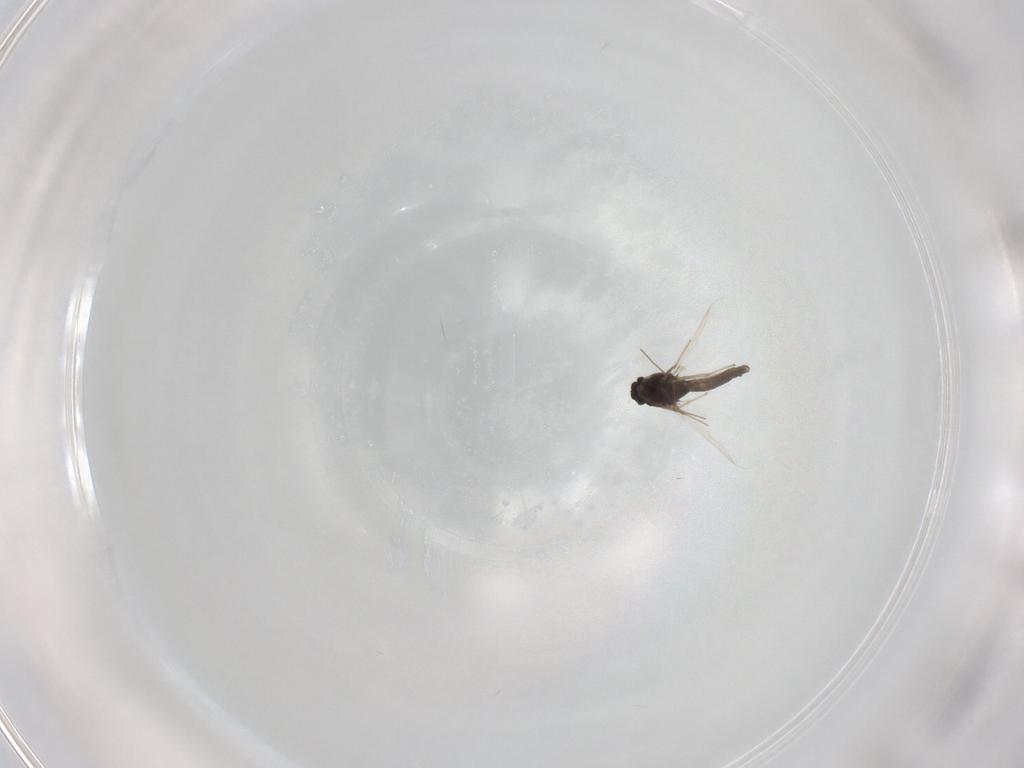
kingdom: Animalia
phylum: Arthropoda
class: Insecta
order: Diptera
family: Chironomidae
